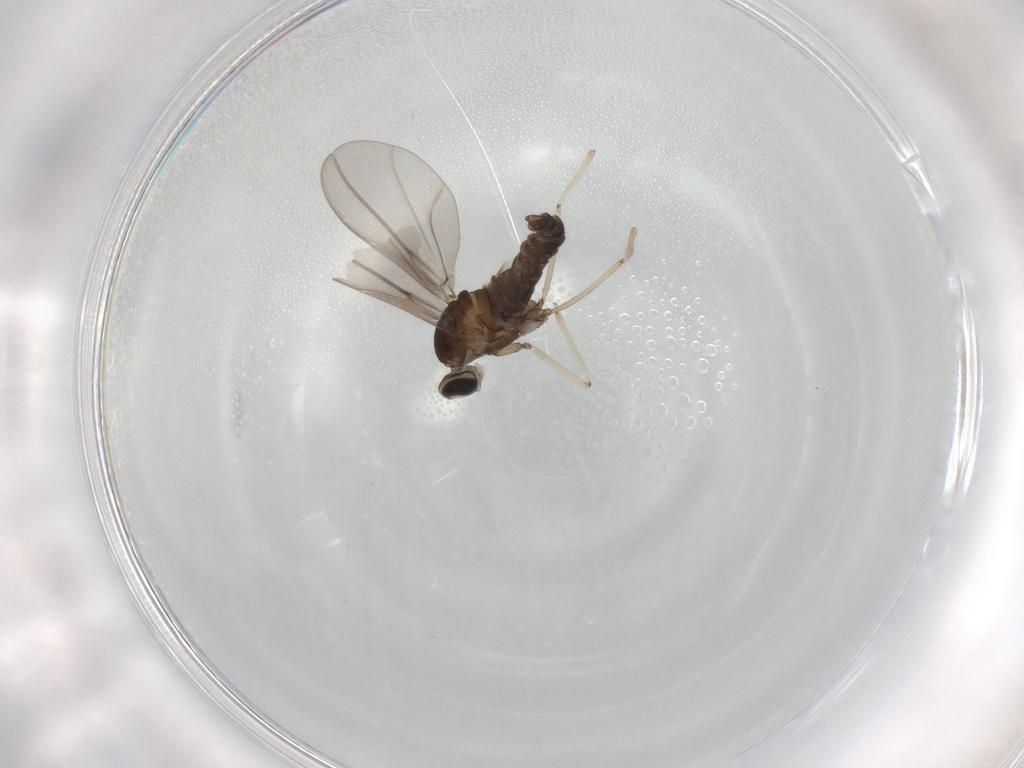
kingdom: Animalia
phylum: Arthropoda
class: Insecta
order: Diptera
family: Cecidomyiidae
